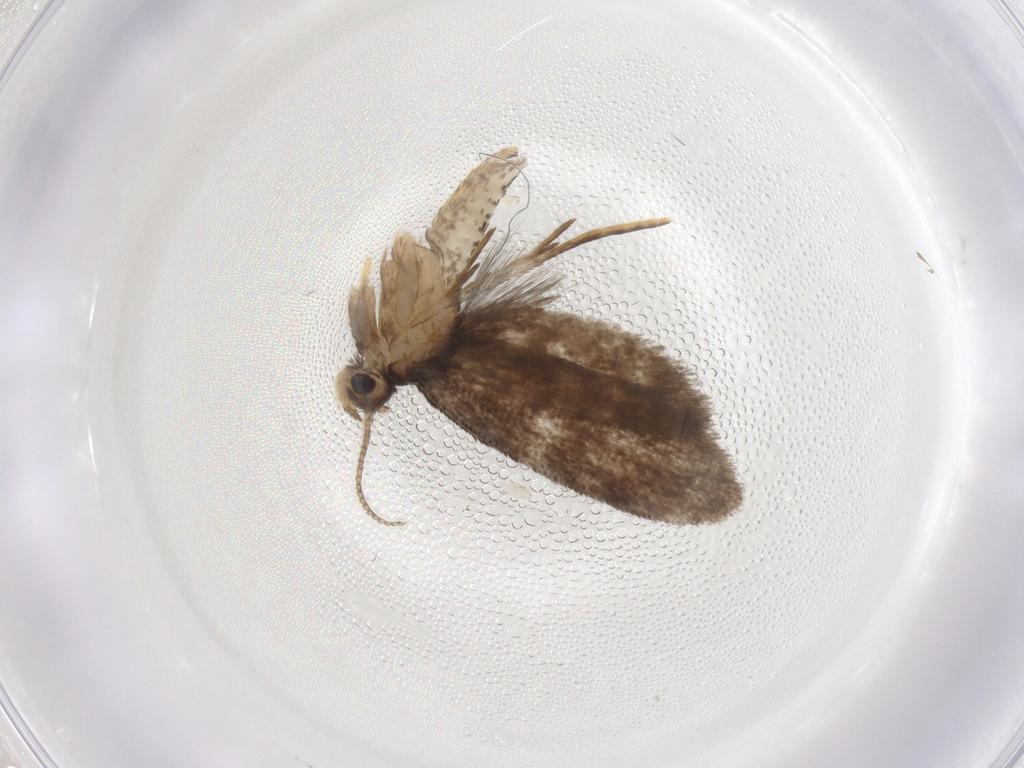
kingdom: Animalia
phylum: Arthropoda
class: Insecta
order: Lepidoptera
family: Psychidae
